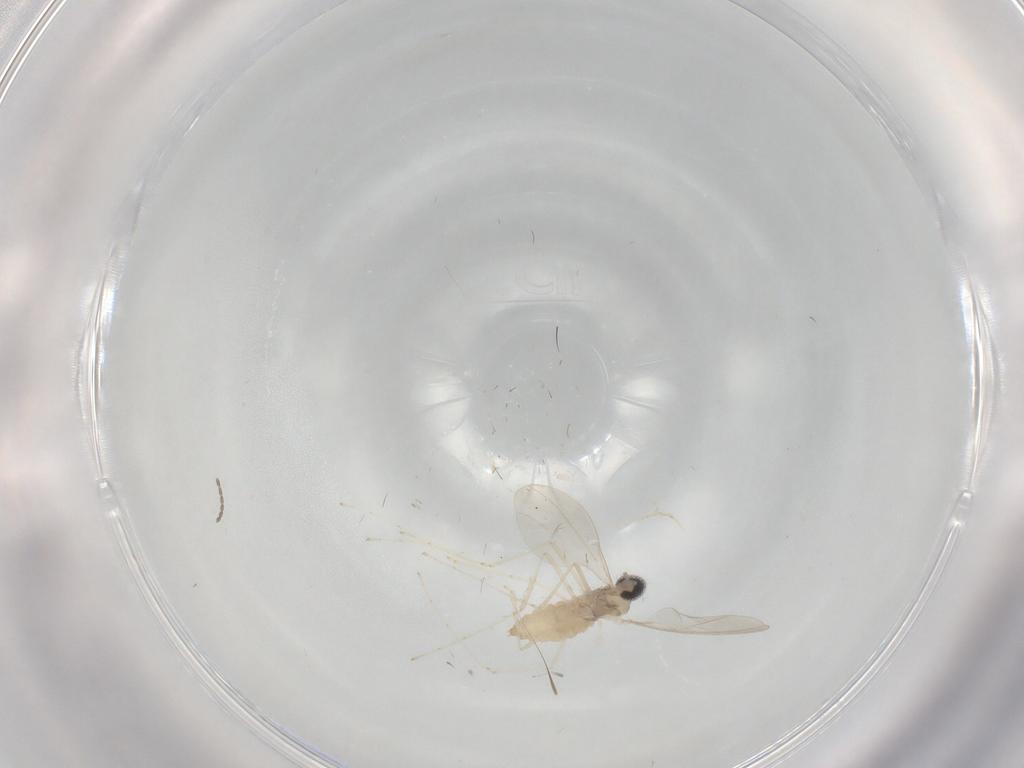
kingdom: Animalia
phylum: Arthropoda
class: Insecta
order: Diptera
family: Cecidomyiidae
